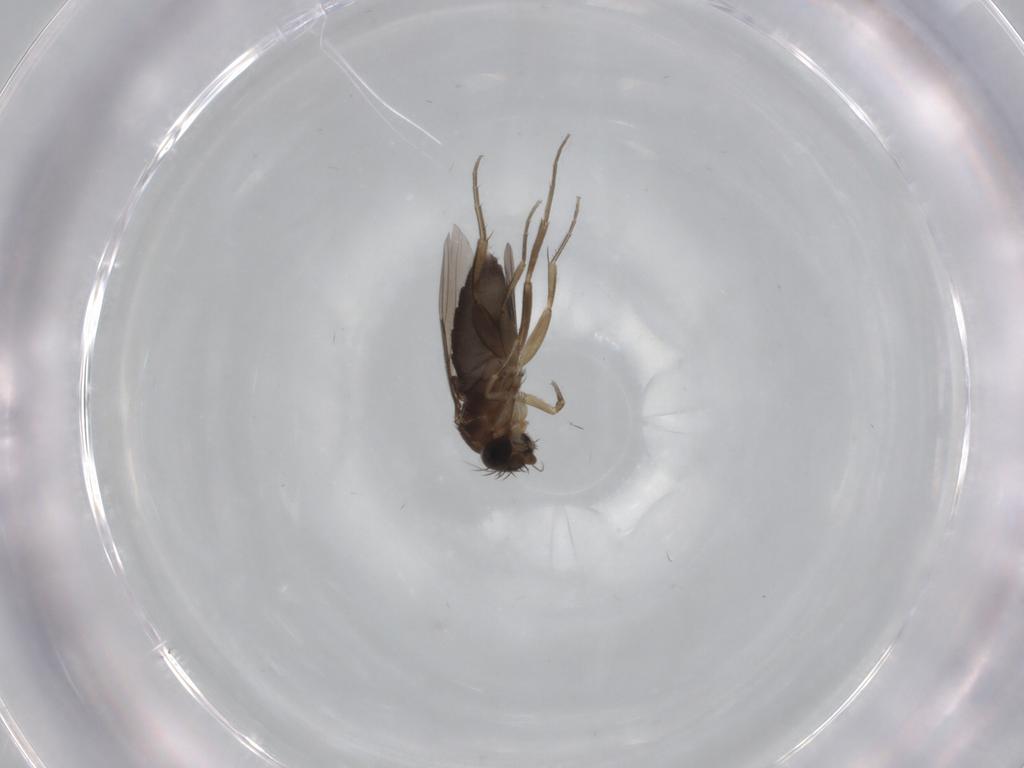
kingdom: Animalia
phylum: Arthropoda
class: Insecta
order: Diptera
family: Phoridae
